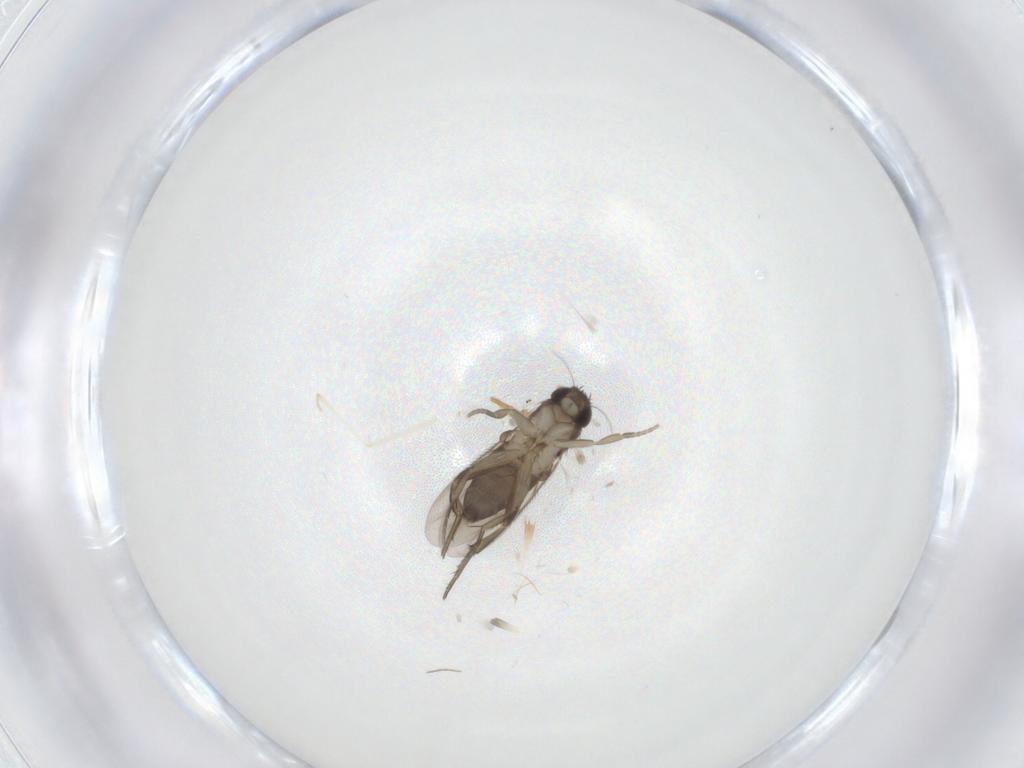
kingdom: Animalia
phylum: Arthropoda
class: Insecta
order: Diptera
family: Phoridae
